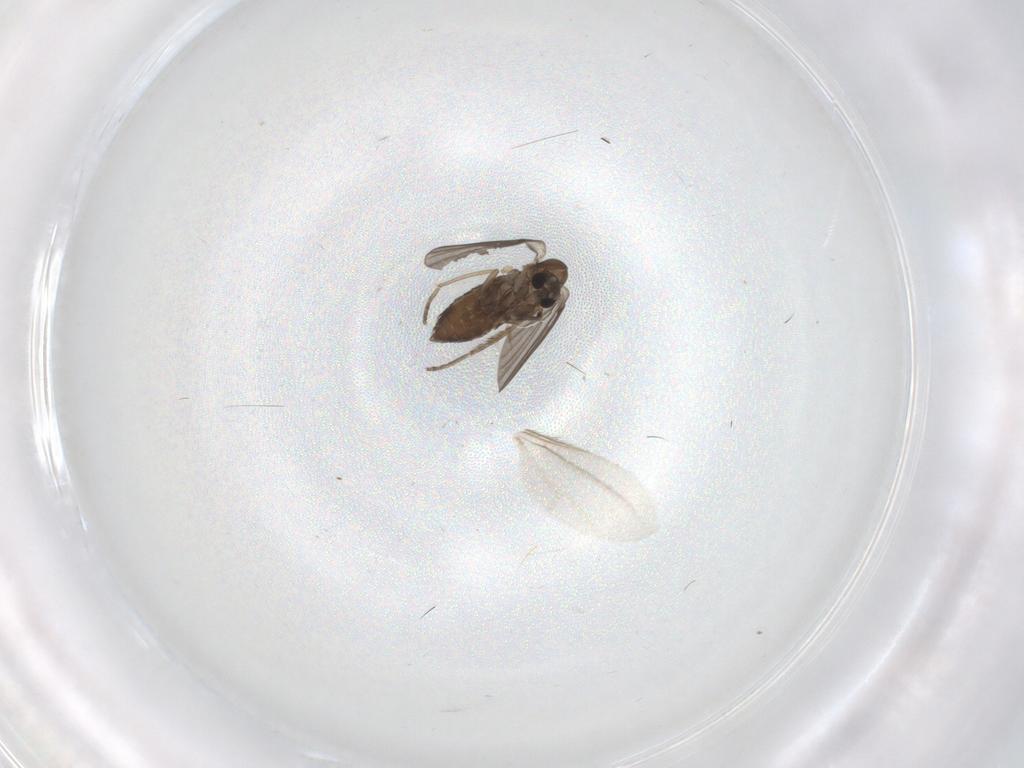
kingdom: Animalia
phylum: Arthropoda
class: Insecta
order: Diptera
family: Cecidomyiidae
